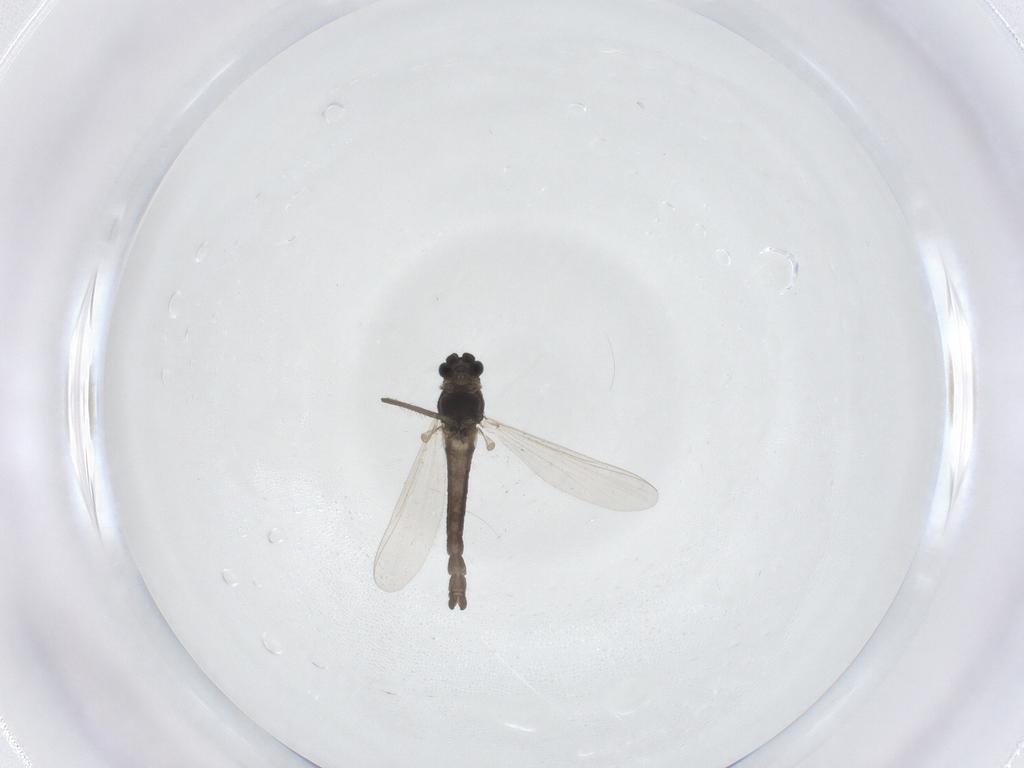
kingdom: Animalia
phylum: Arthropoda
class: Insecta
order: Diptera
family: Chironomidae
